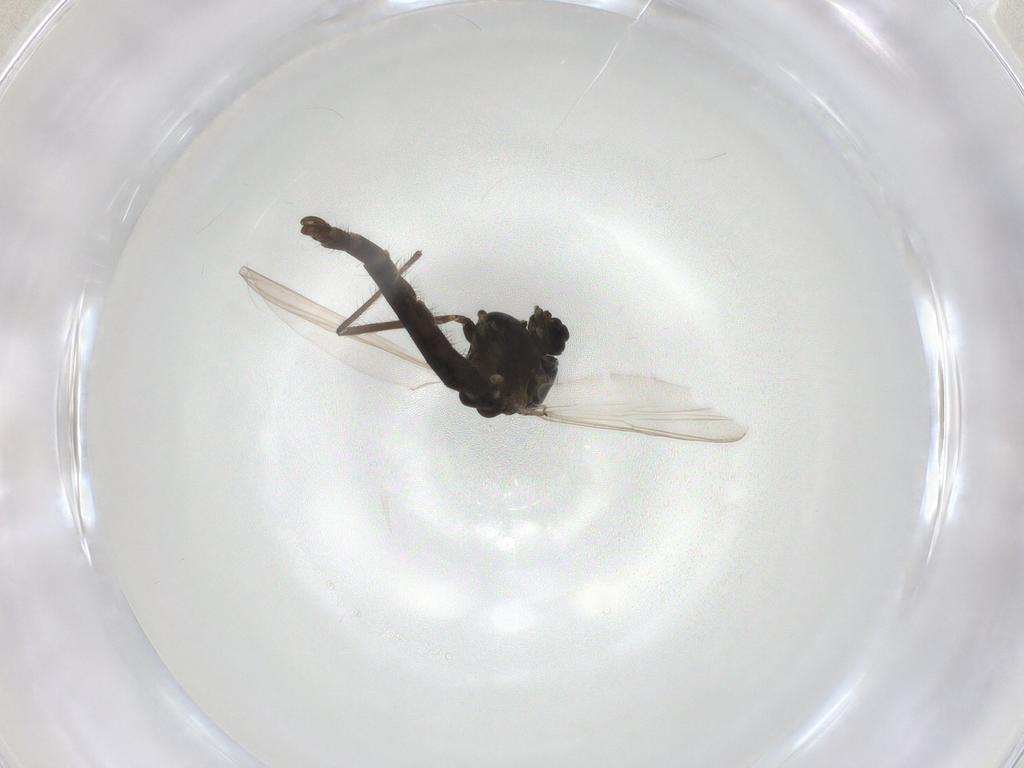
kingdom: Animalia
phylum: Arthropoda
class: Insecta
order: Diptera
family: Chironomidae
